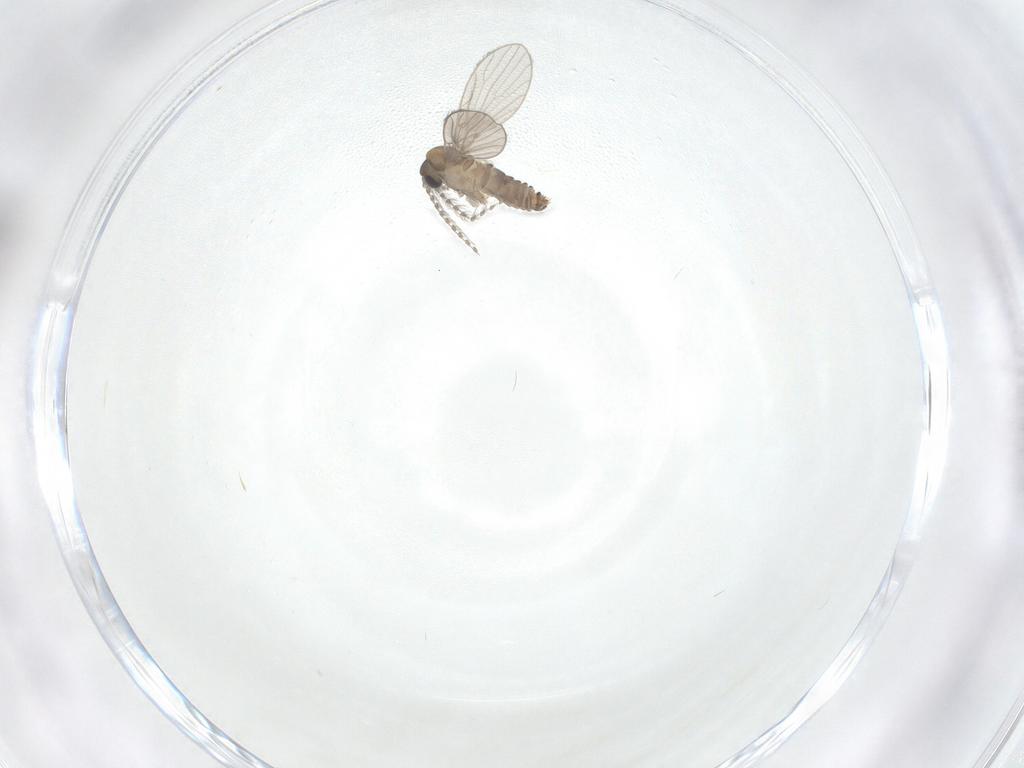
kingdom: Animalia
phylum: Arthropoda
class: Insecta
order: Diptera
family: Psychodidae
